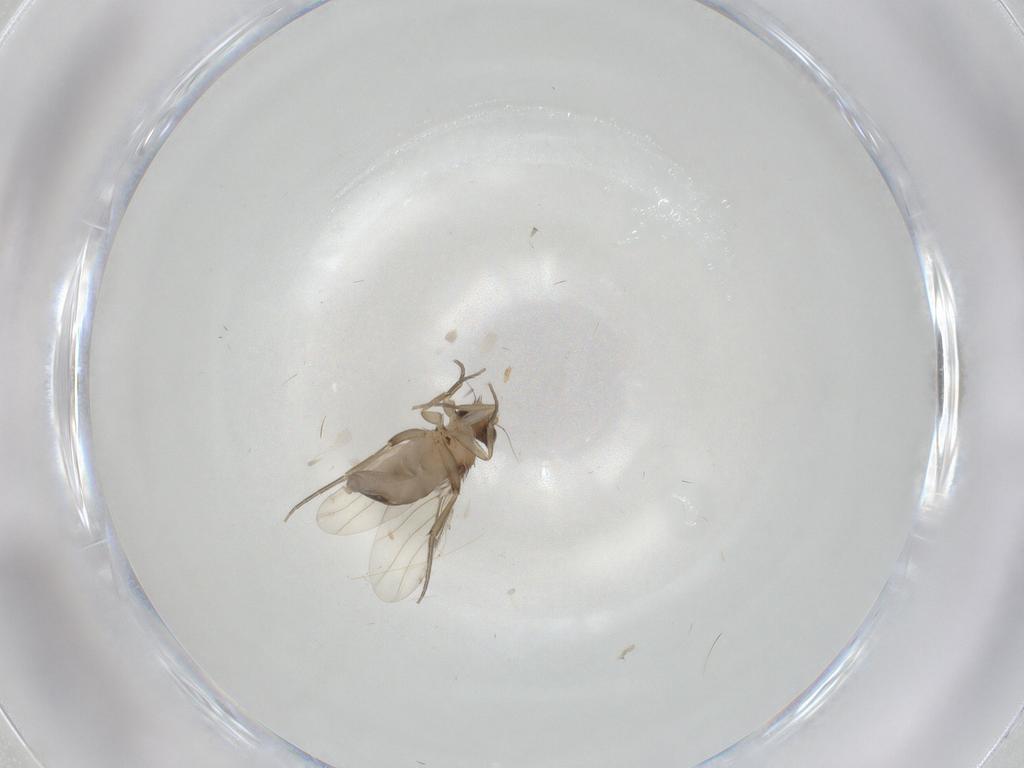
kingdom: Animalia
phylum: Arthropoda
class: Insecta
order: Diptera
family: Phoridae
